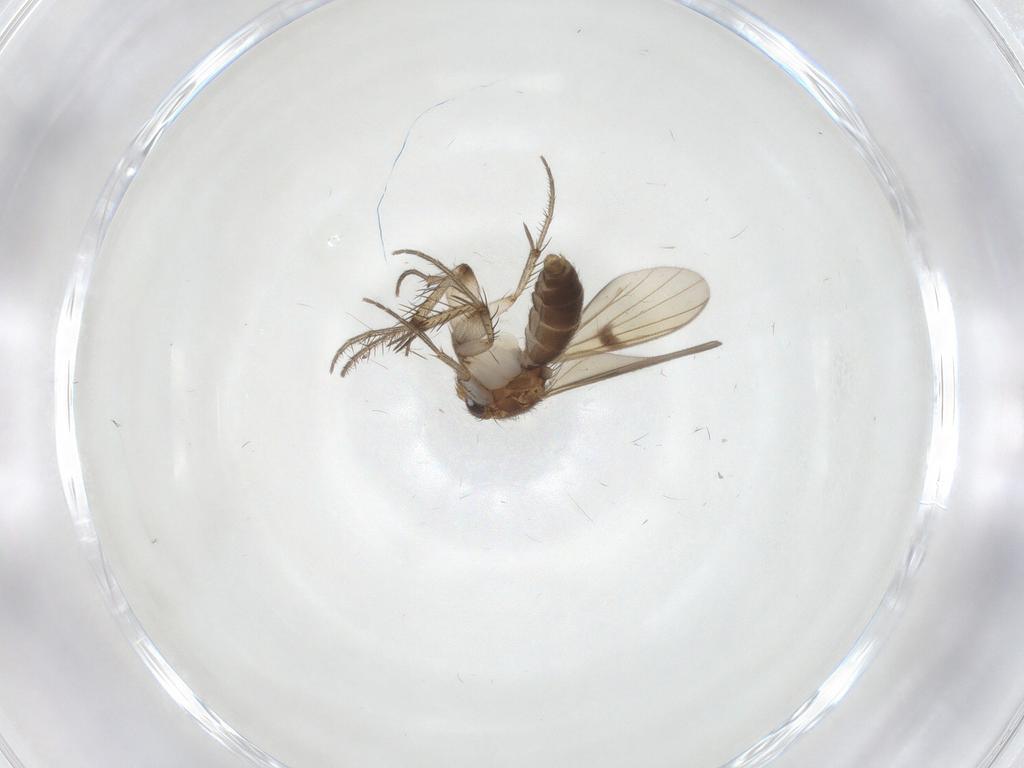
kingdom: Animalia
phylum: Arthropoda
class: Insecta
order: Diptera
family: Mycetophilidae
